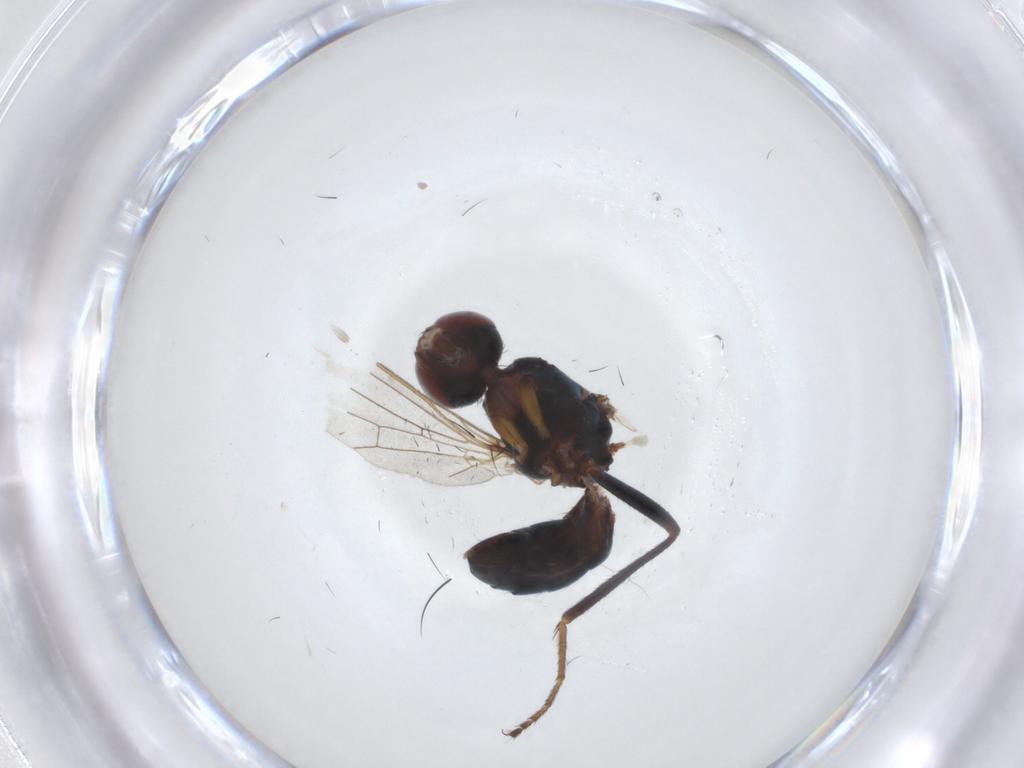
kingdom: Animalia
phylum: Arthropoda
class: Insecta
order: Diptera
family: Sepsidae
